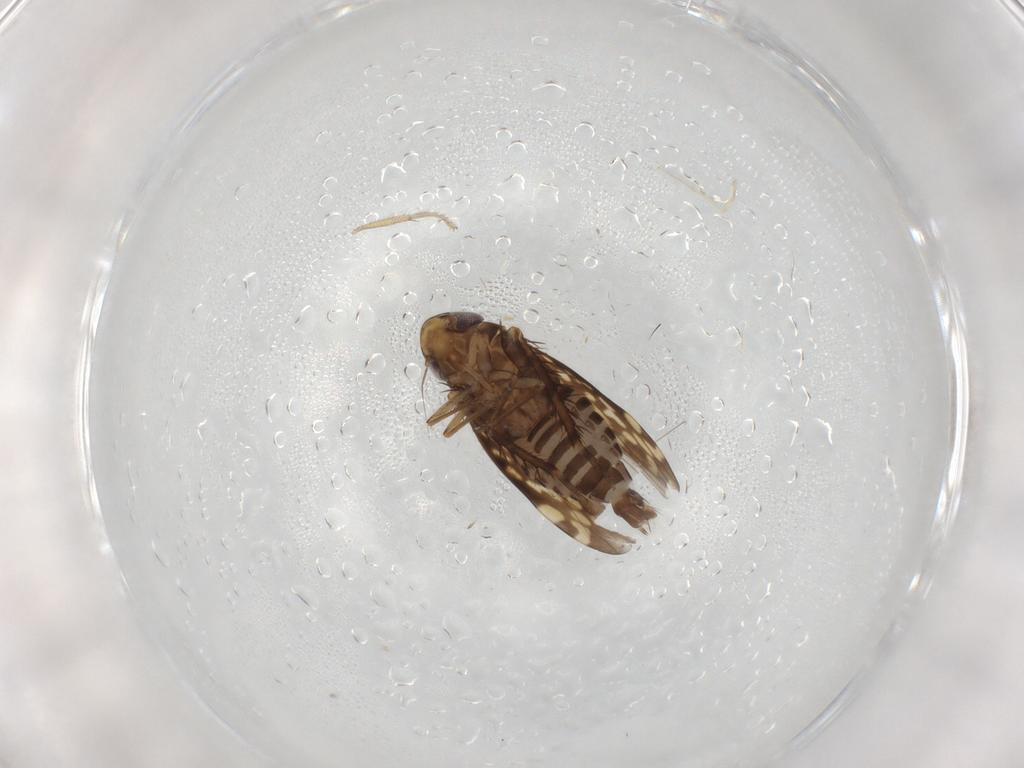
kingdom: Animalia
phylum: Arthropoda
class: Insecta
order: Hemiptera
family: Cicadellidae
